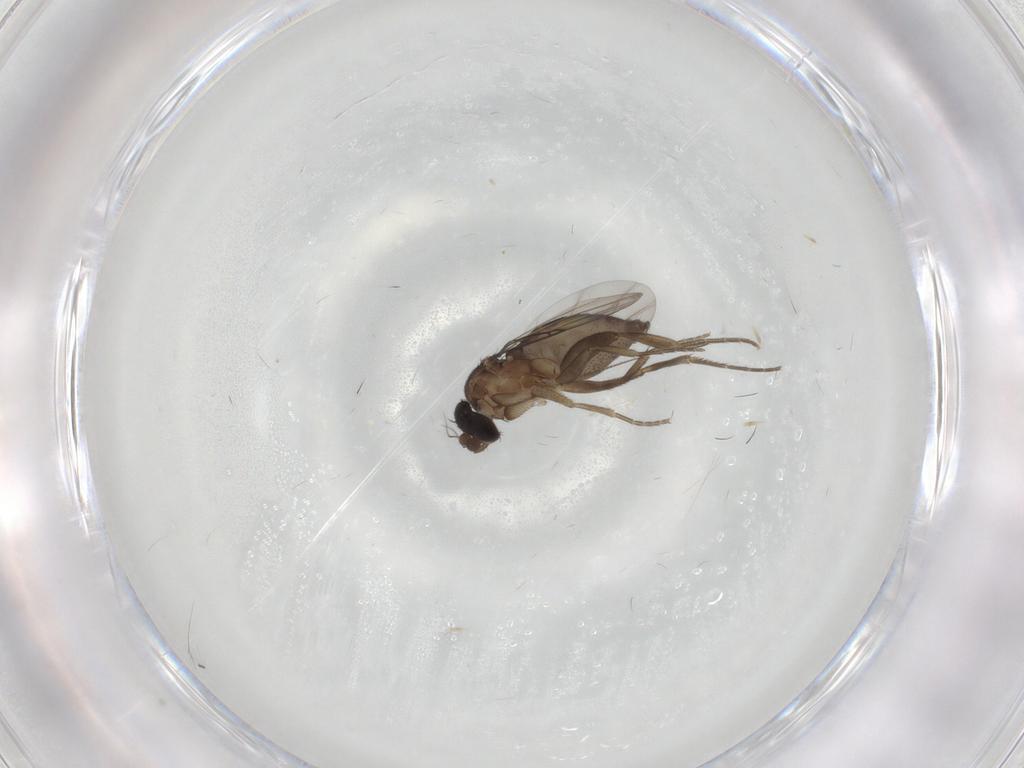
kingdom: Animalia
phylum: Arthropoda
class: Insecta
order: Diptera
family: Phoridae
